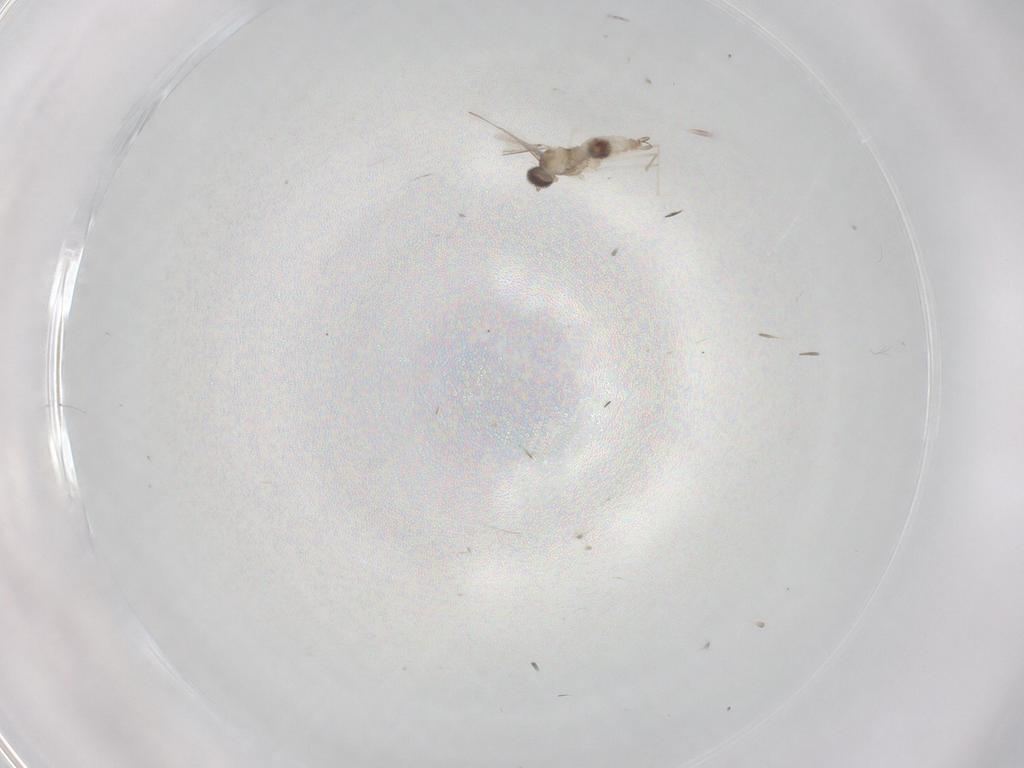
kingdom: Animalia
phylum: Arthropoda
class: Insecta
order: Diptera
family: Cecidomyiidae
